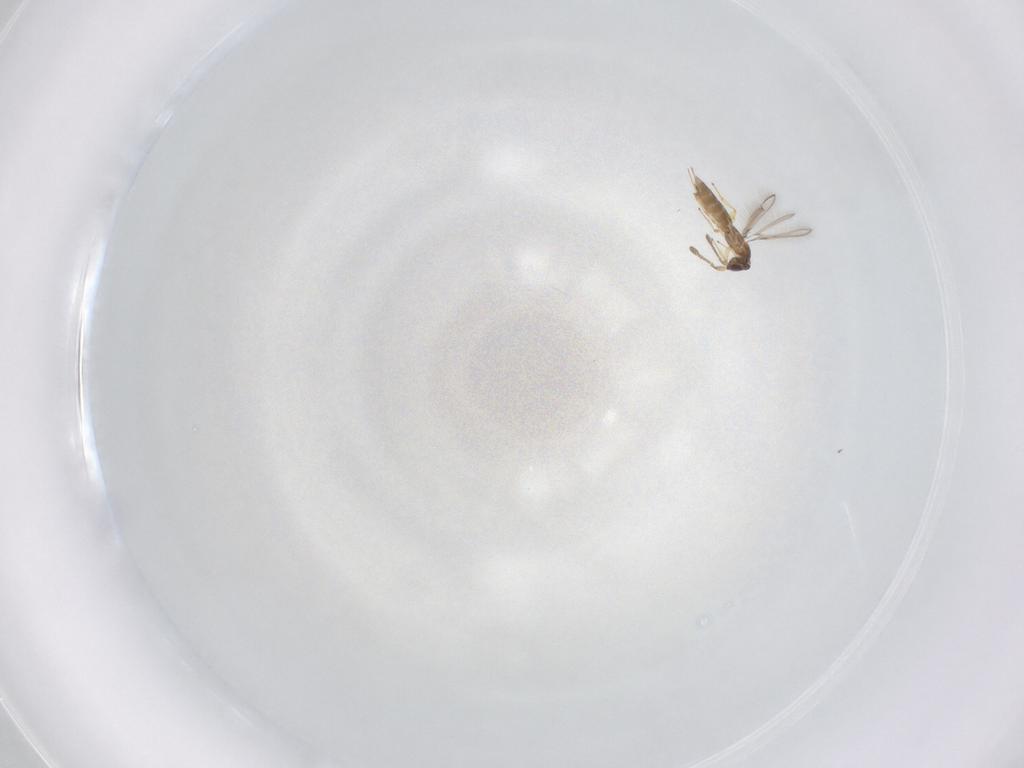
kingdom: Animalia
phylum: Arthropoda
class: Insecta
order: Hymenoptera
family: Mymaridae
